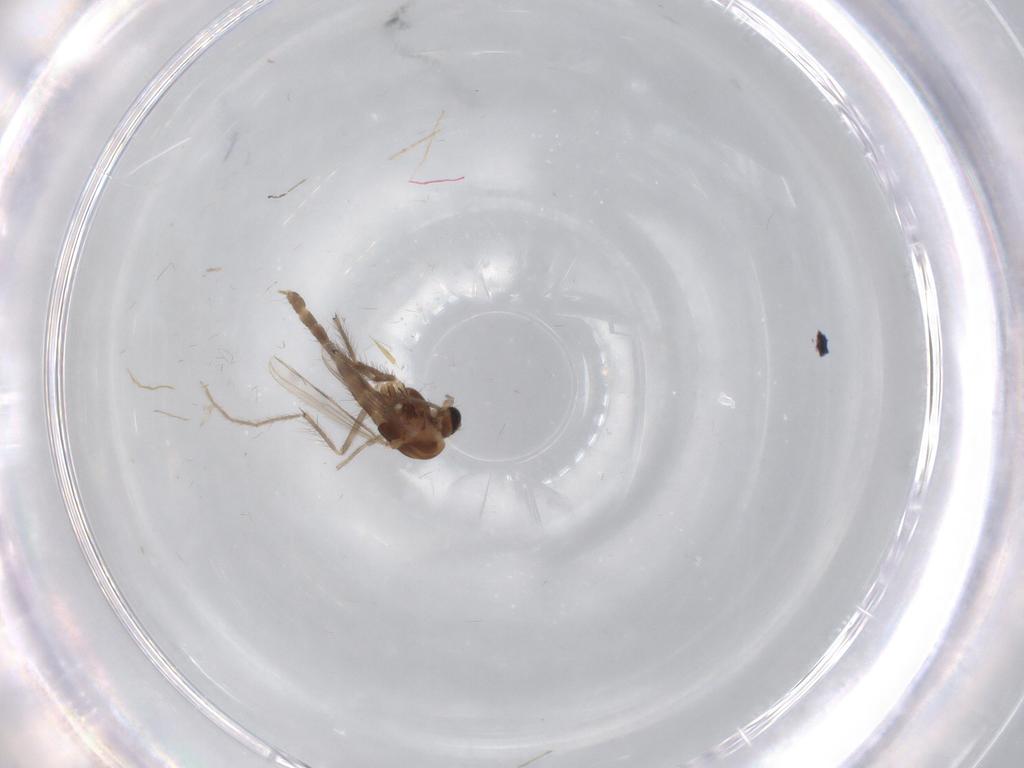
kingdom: Animalia
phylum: Arthropoda
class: Insecta
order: Diptera
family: Chironomidae
